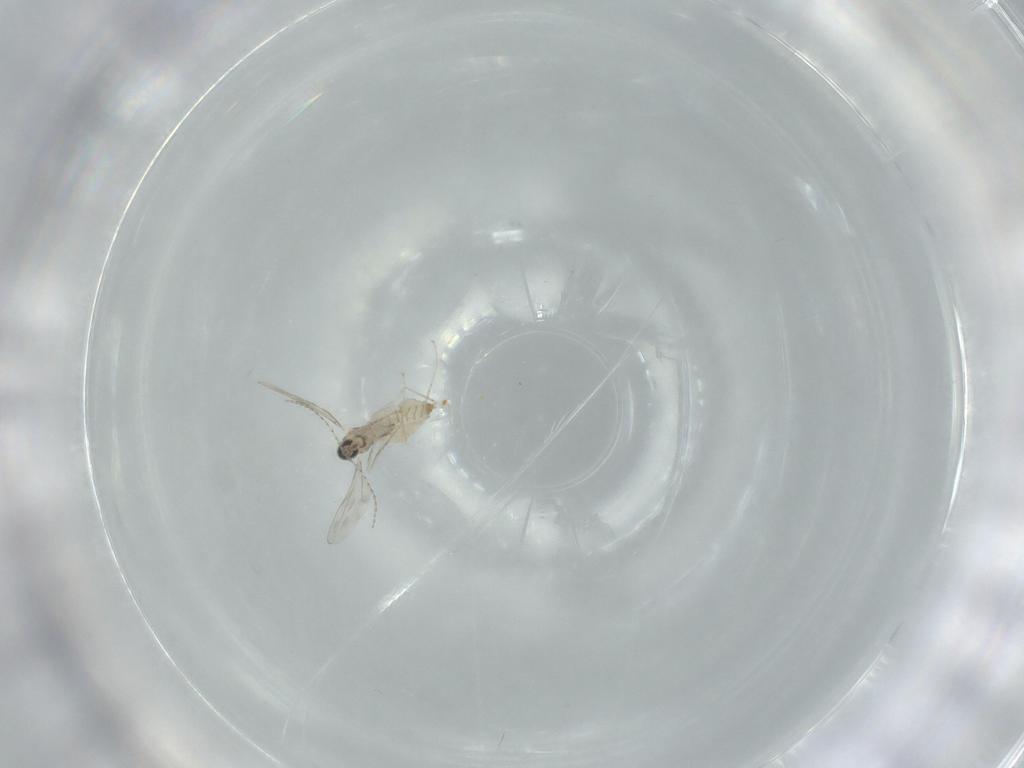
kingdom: Animalia
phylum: Arthropoda
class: Insecta
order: Diptera
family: Cecidomyiidae
